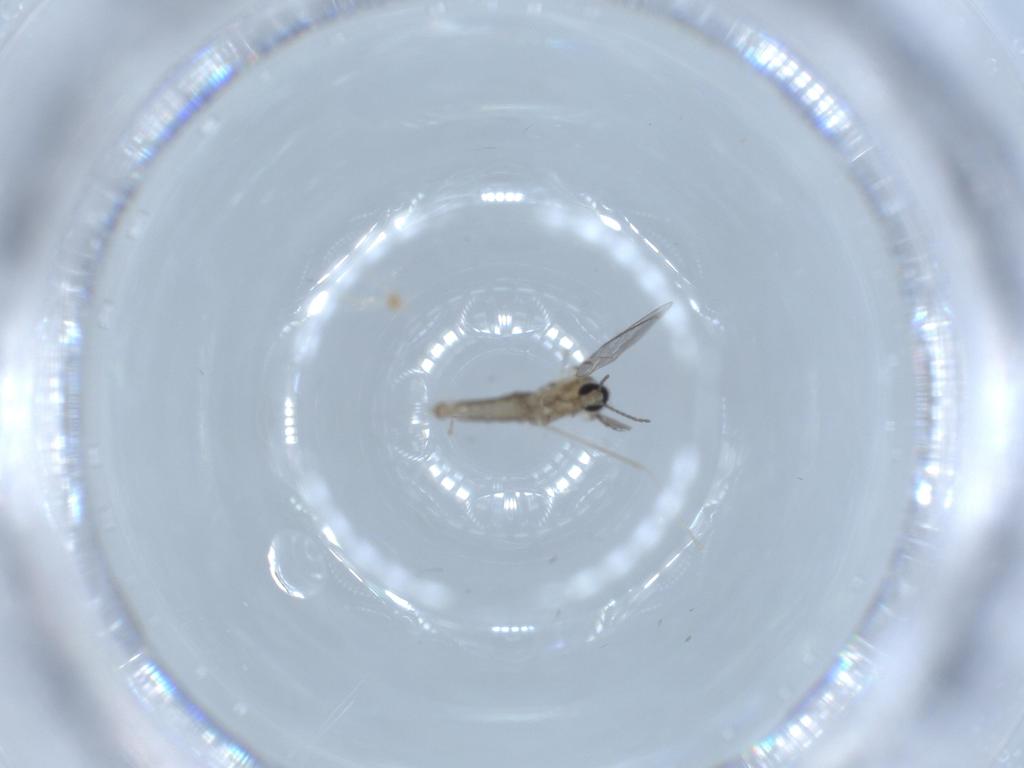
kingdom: Animalia
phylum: Arthropoda
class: Insecta
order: Diptera
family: Cecidomyiidae
